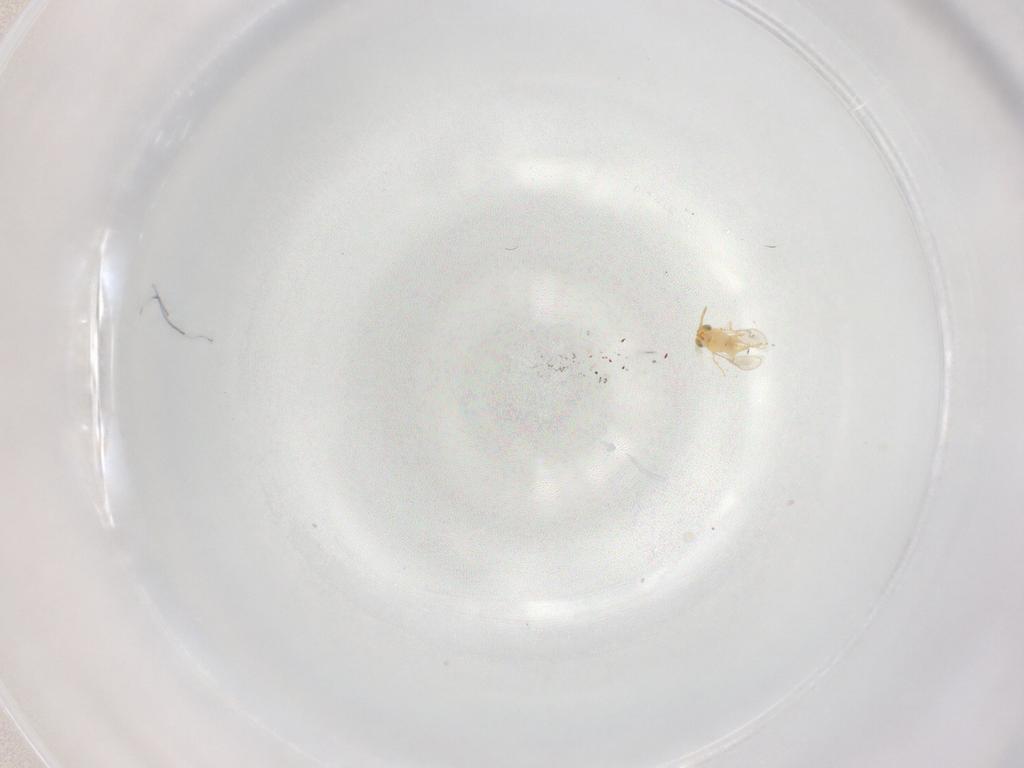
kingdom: Animalia
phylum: Arthropoda
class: Insecta
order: Hymenoptera
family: Aphelinidae
